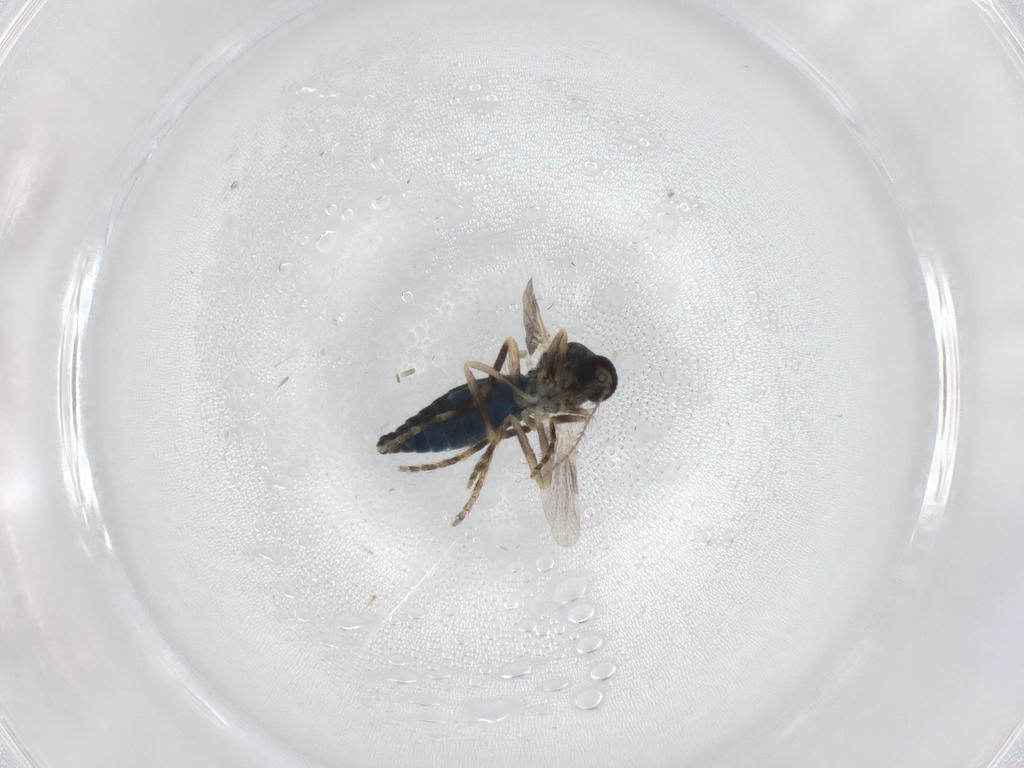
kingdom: Animalia
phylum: Arthropoda
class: Insecta
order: Diptera
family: Ceratopogonidae
